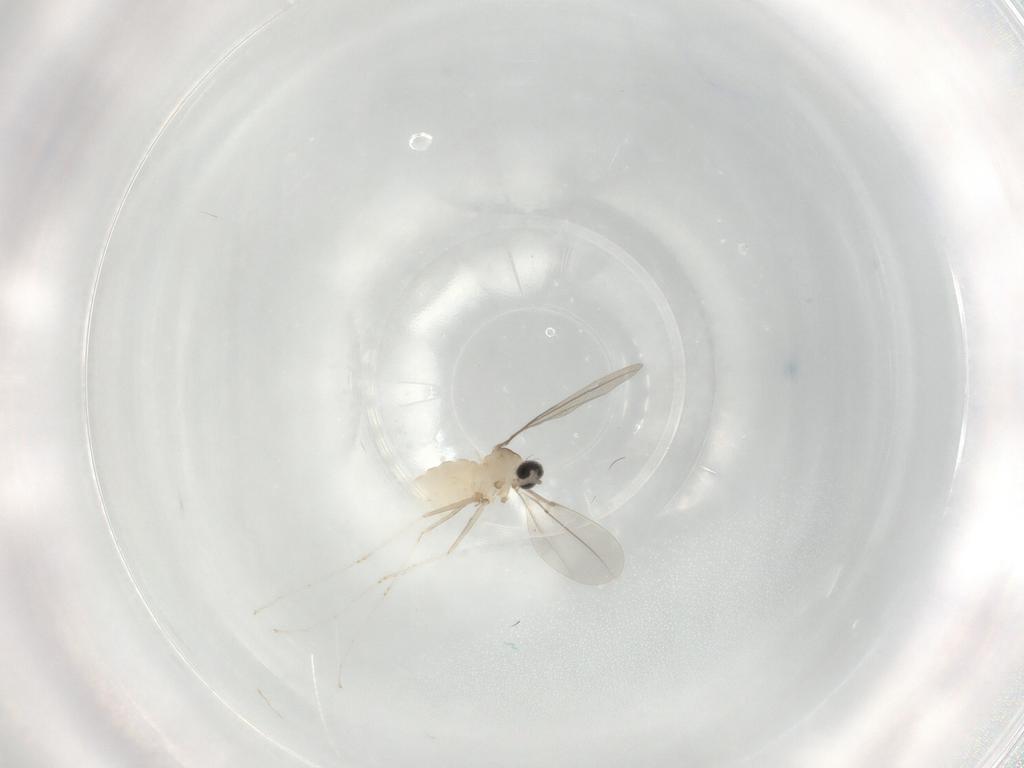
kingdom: Animalia
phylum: Arthropoda
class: Insecta
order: Diptera
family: Cecidomyiidae
